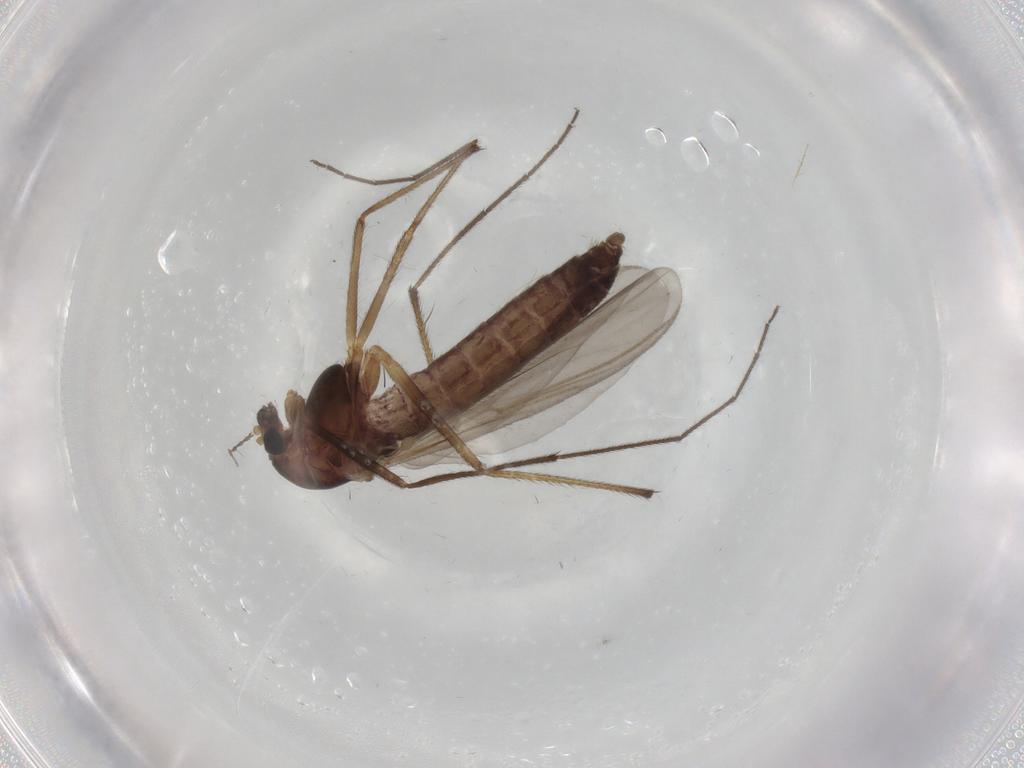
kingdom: Animalia
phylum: Arthropoda
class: Insecta
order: Diptera
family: Chironomidae
